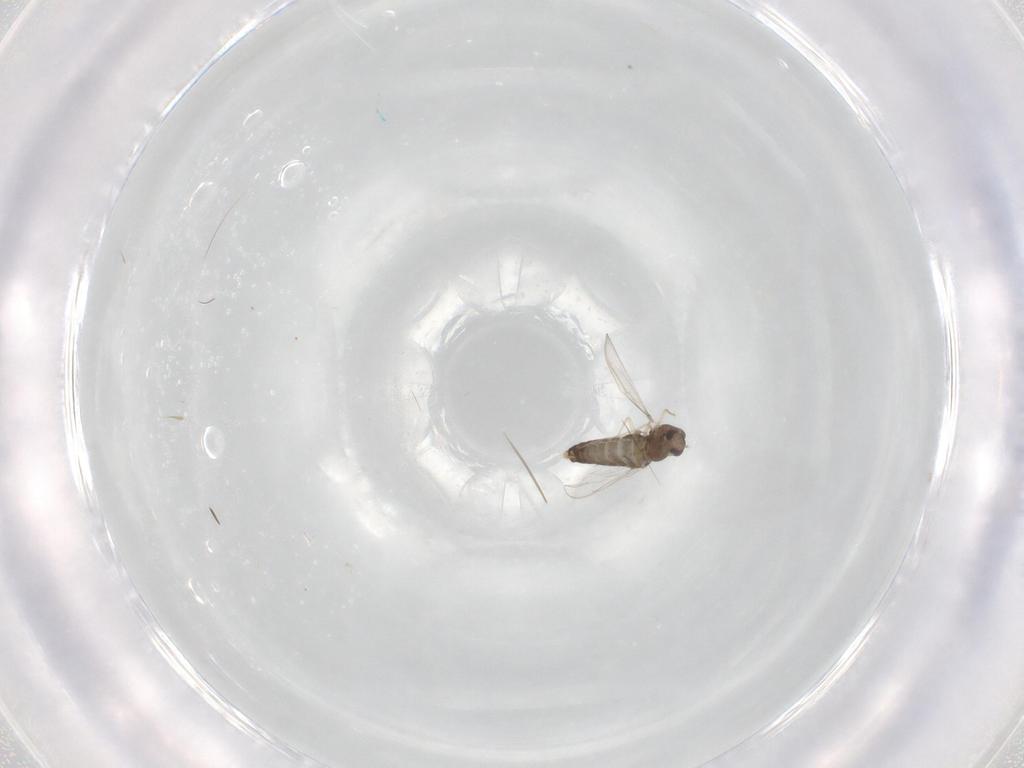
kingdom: Animalia
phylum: Arthropoda
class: Insecta
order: Diptera
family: Chironomidae
